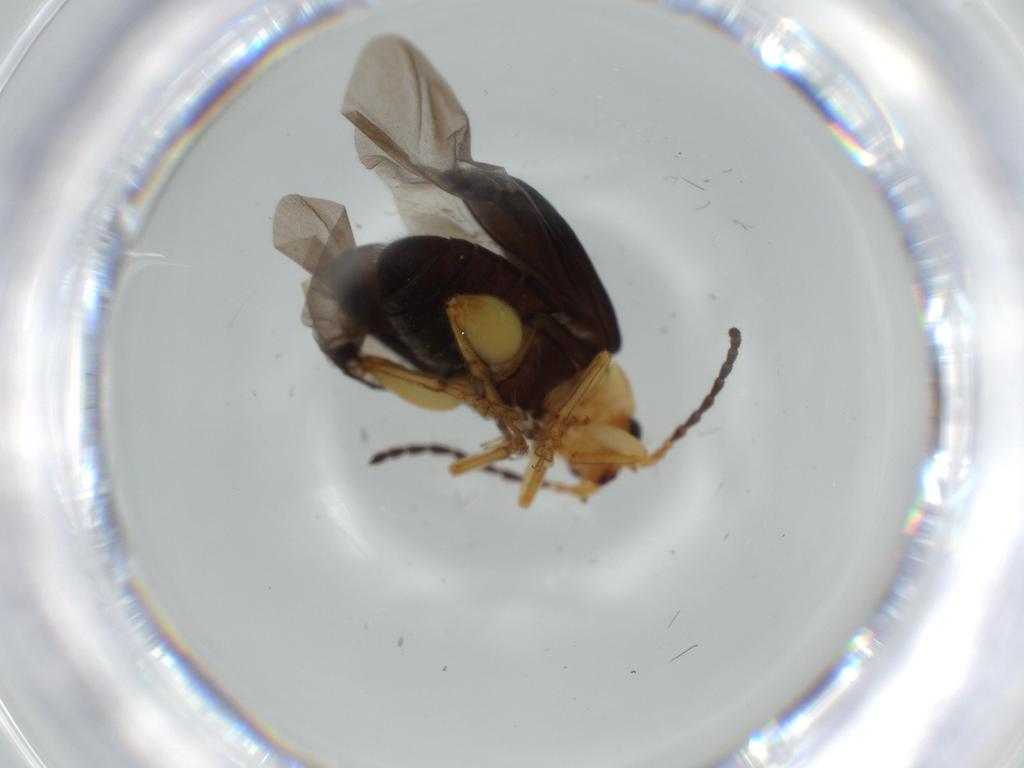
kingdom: Animalia
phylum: Arthropoda
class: Insecta
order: Coleoptera
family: Chrysomelidae
